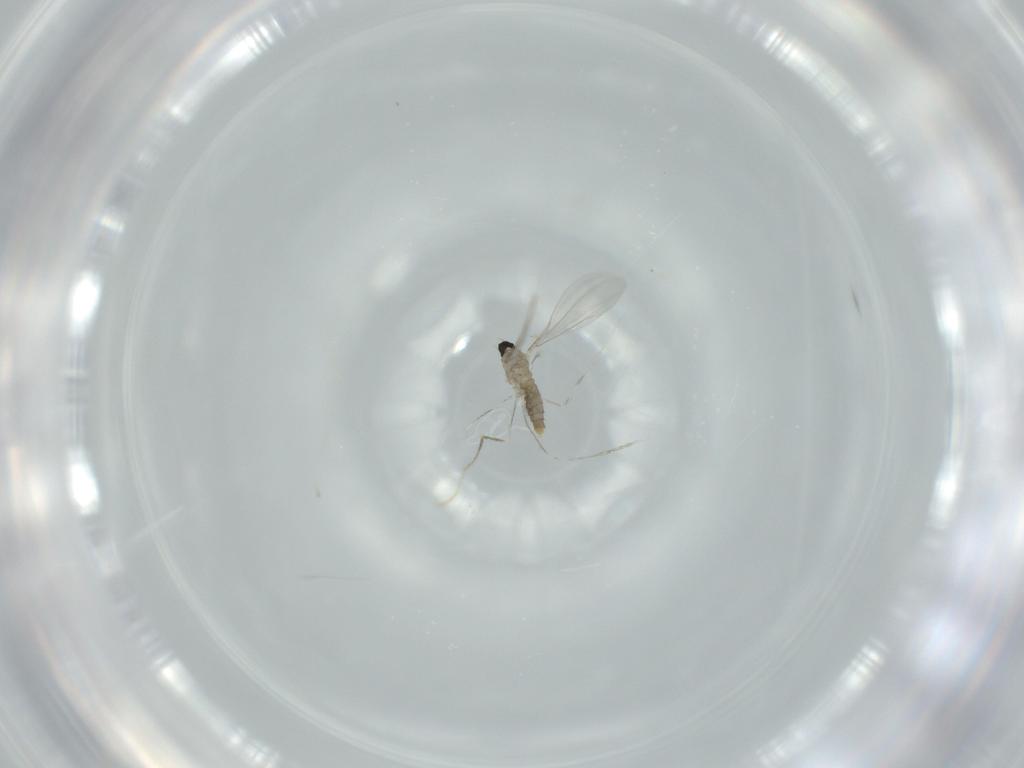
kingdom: Animalia
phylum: Arthropoda
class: Insecta
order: Diptera
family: Cecidomyiidae
